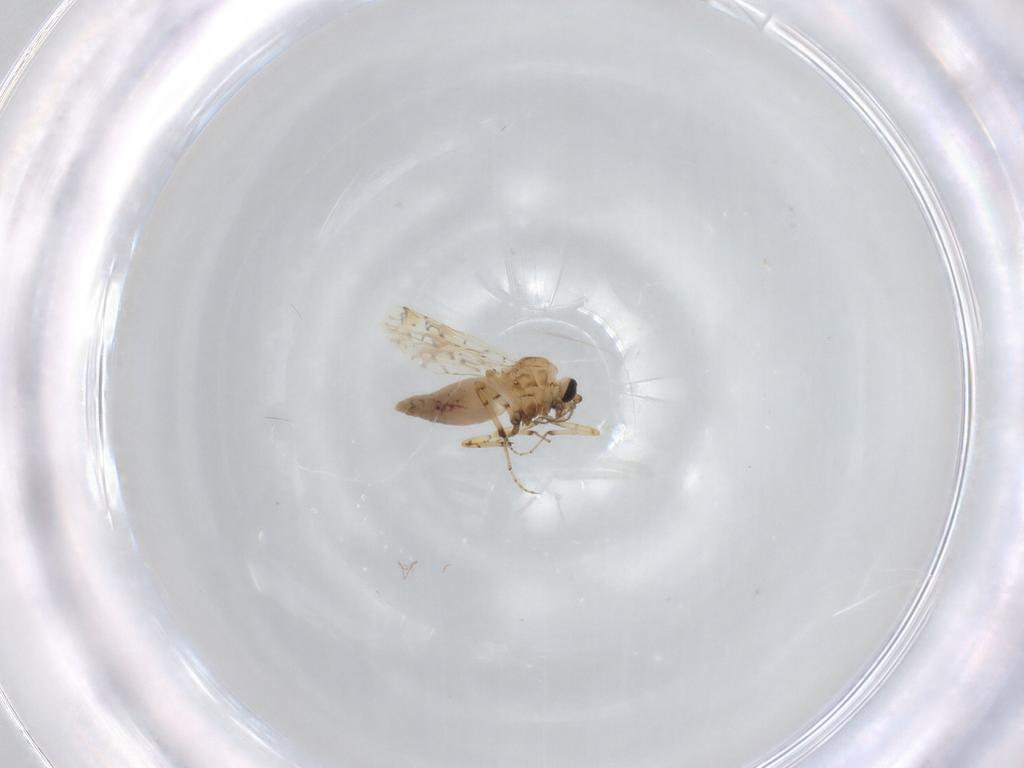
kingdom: Animalia
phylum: Arthropoda
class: Insecta
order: Diptera
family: Ceratopogonidae
